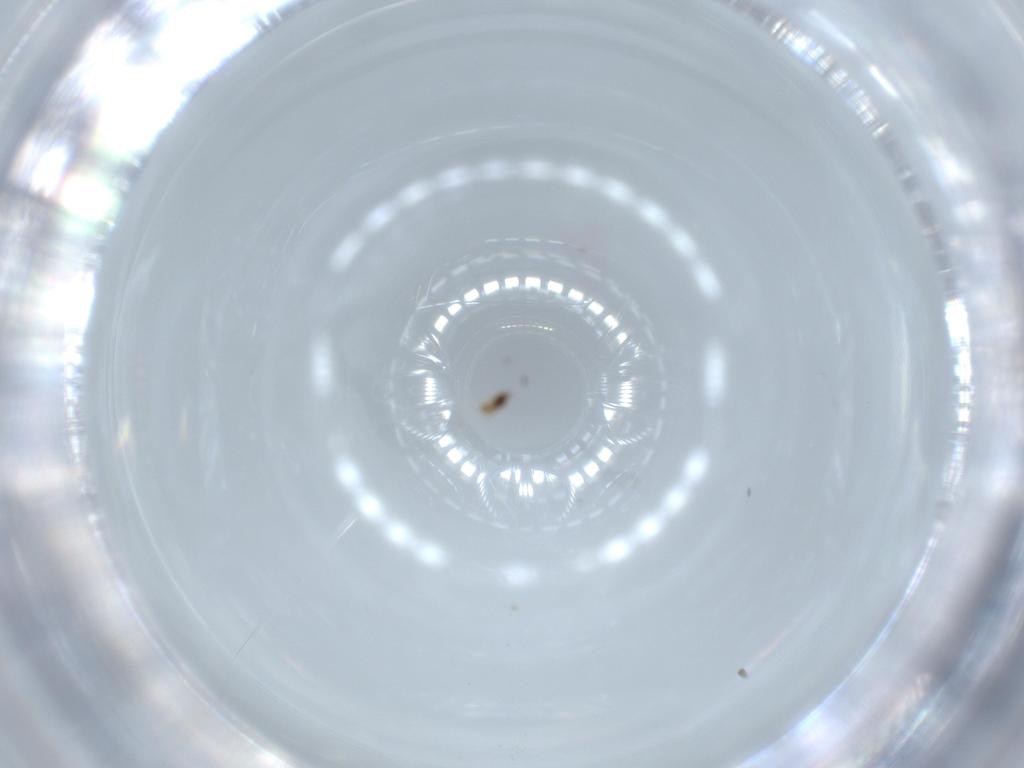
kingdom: Animalia
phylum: Arthropoda
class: Insecta
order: Diptera
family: Cecidomyiidae
